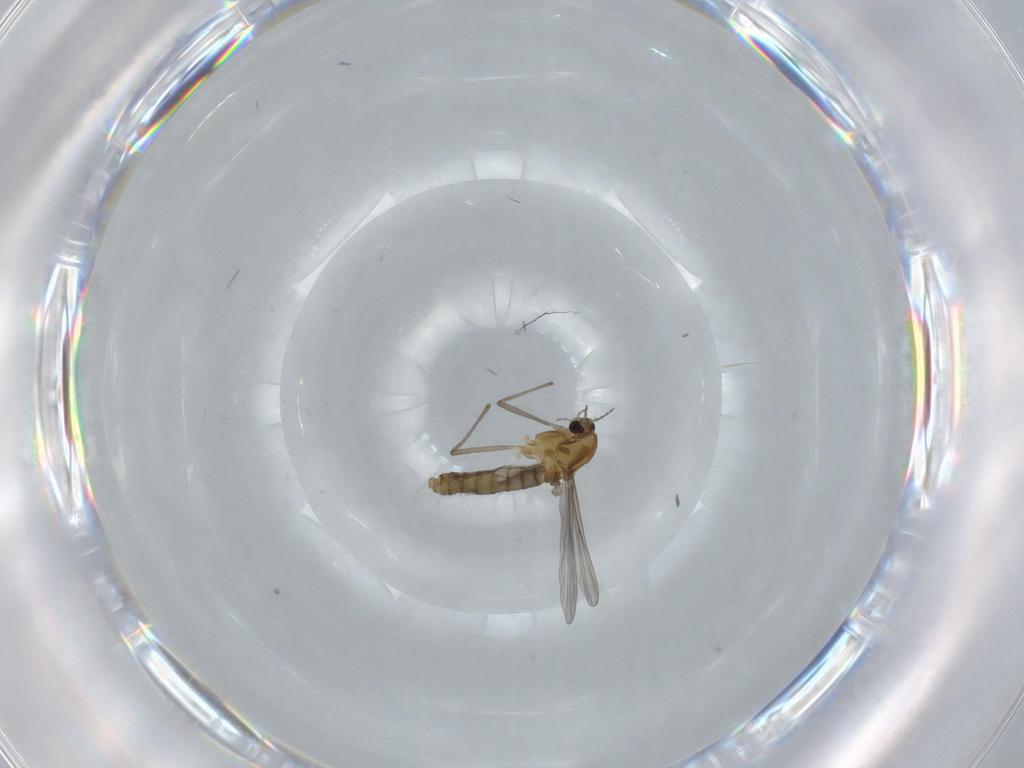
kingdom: Animalia
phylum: Arthropoda
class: Insecta
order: Diptera
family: Chironomidae
